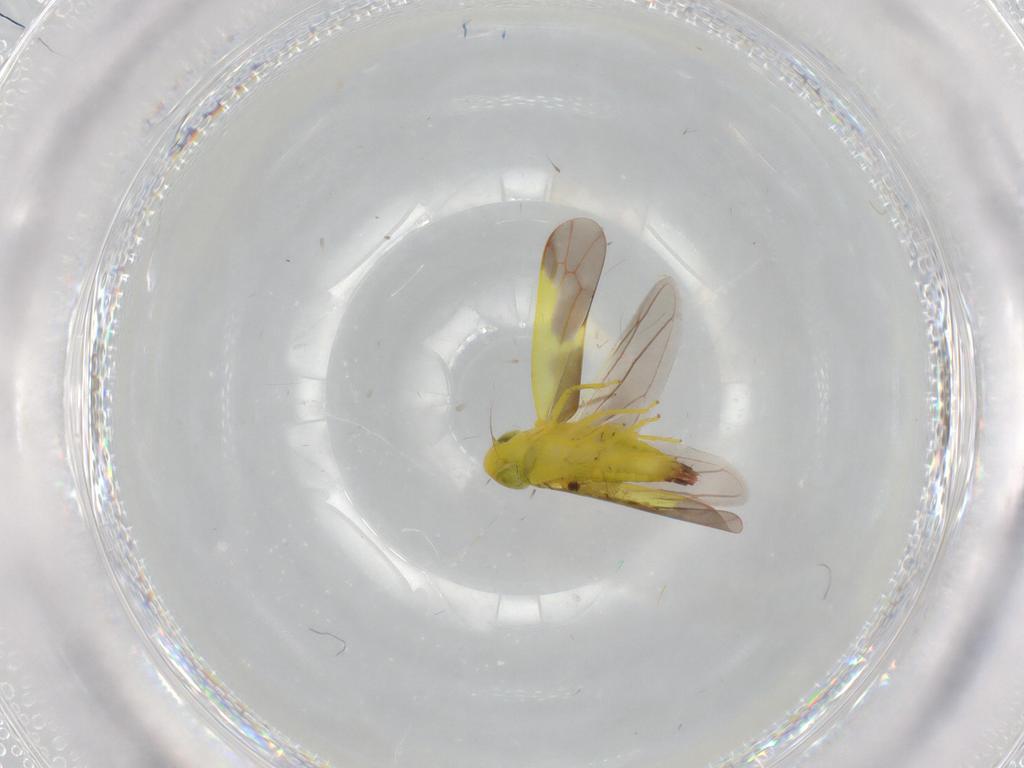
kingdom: Animalia
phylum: Arthropoda
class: Insecta
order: Hemiptera
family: Cicadellidae
